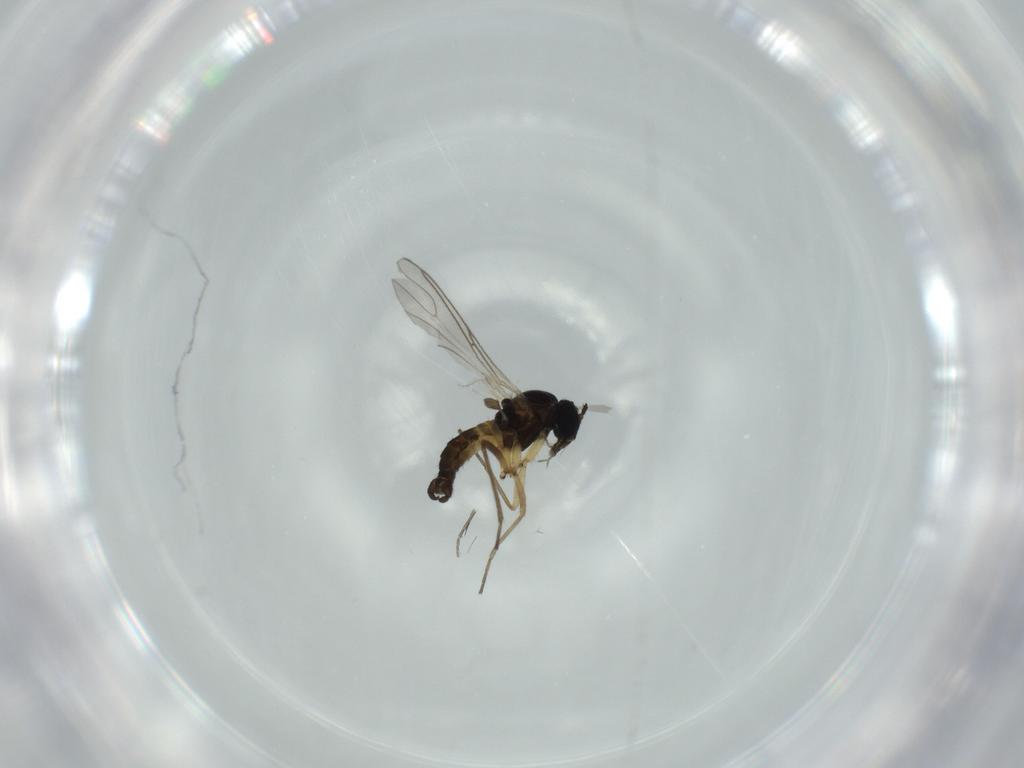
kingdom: Animalia
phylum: Arthropoda
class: Insecta
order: Diptera
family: Sciaridae
